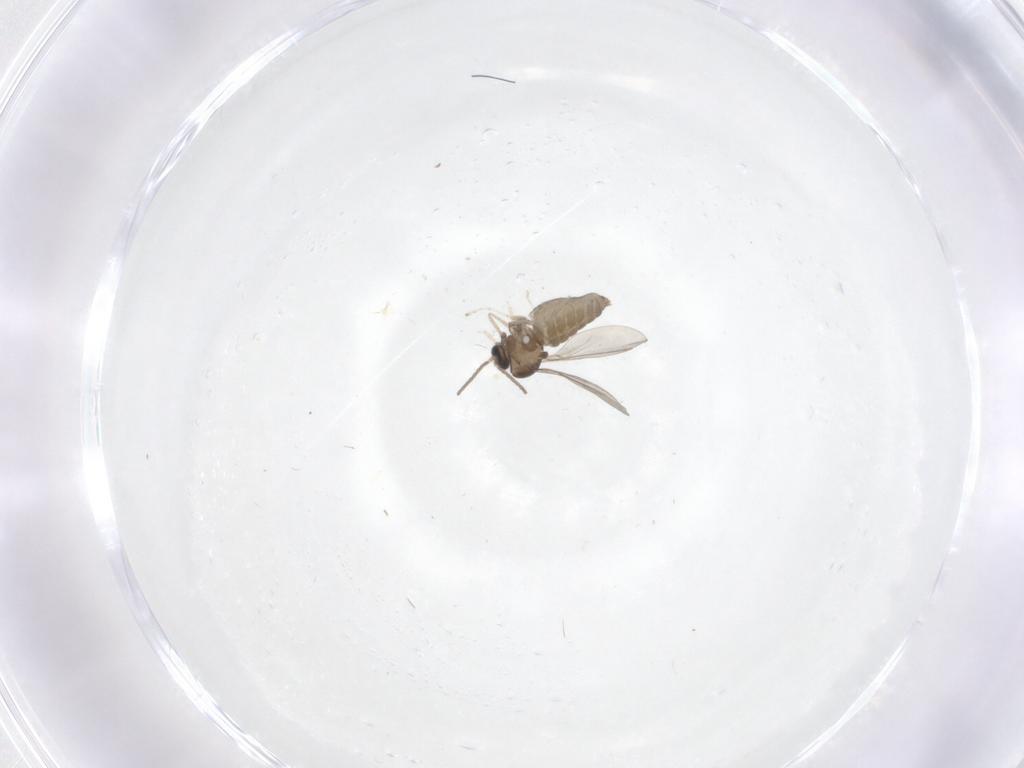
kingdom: Animalia
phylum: Arthropoda
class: Insecta
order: Diptera
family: Cecidomyiidae
